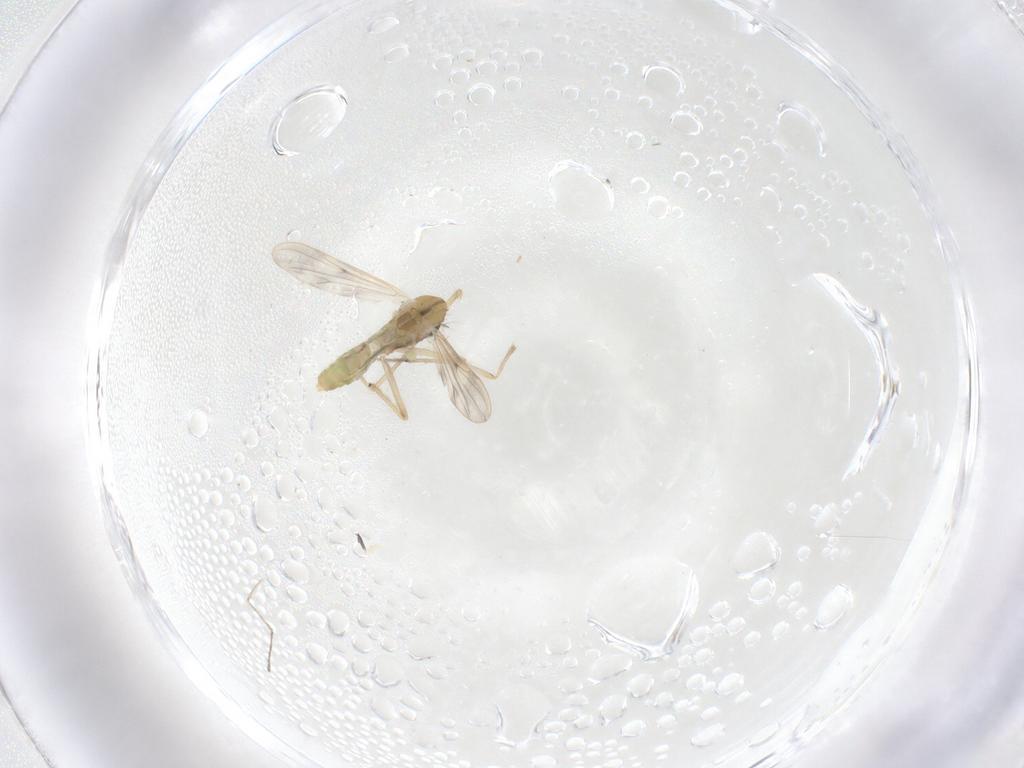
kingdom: Animalia
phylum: Arthropoda
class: Insecta
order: Diptera
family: Chironomidae
